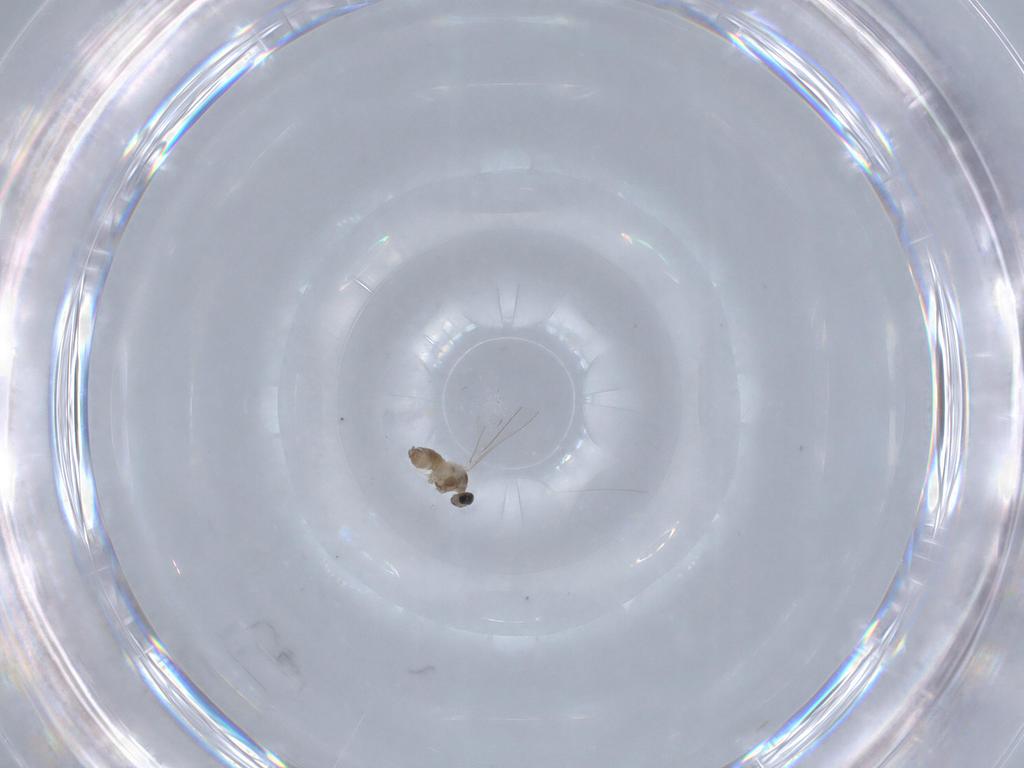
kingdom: Animalia
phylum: Arthropoda
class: Insecta
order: Diptera
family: Cecidomyiidae
